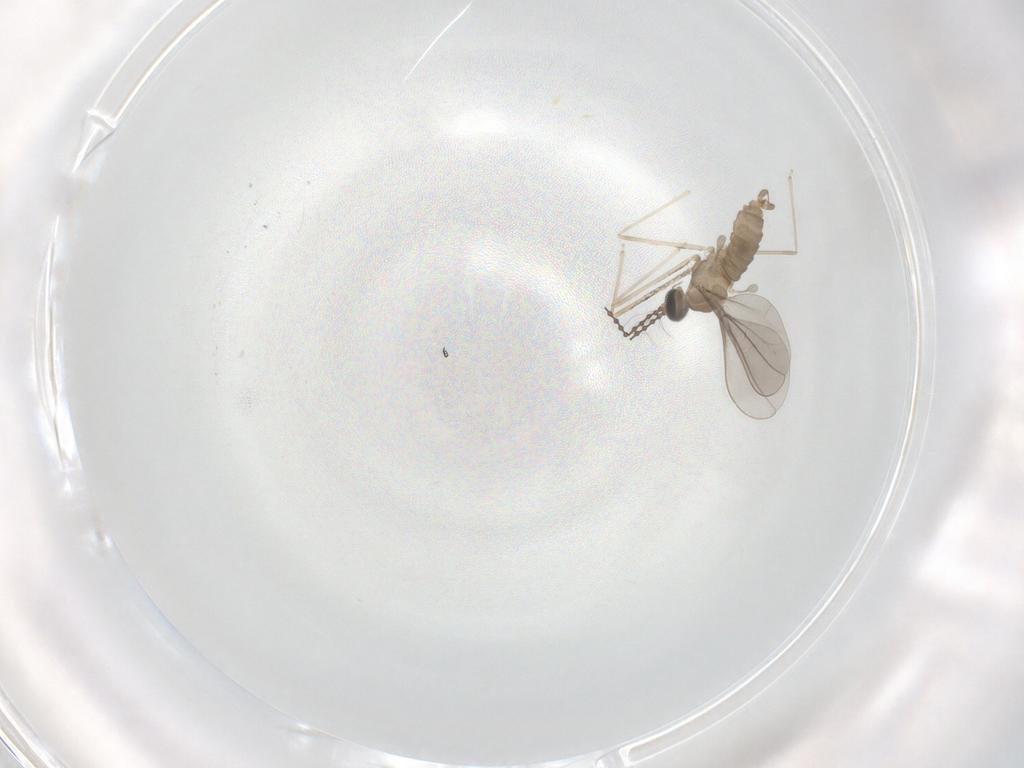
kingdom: Animalia
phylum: Arthropoda
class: Insecta
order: Diptera
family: Cecidomyiidae
